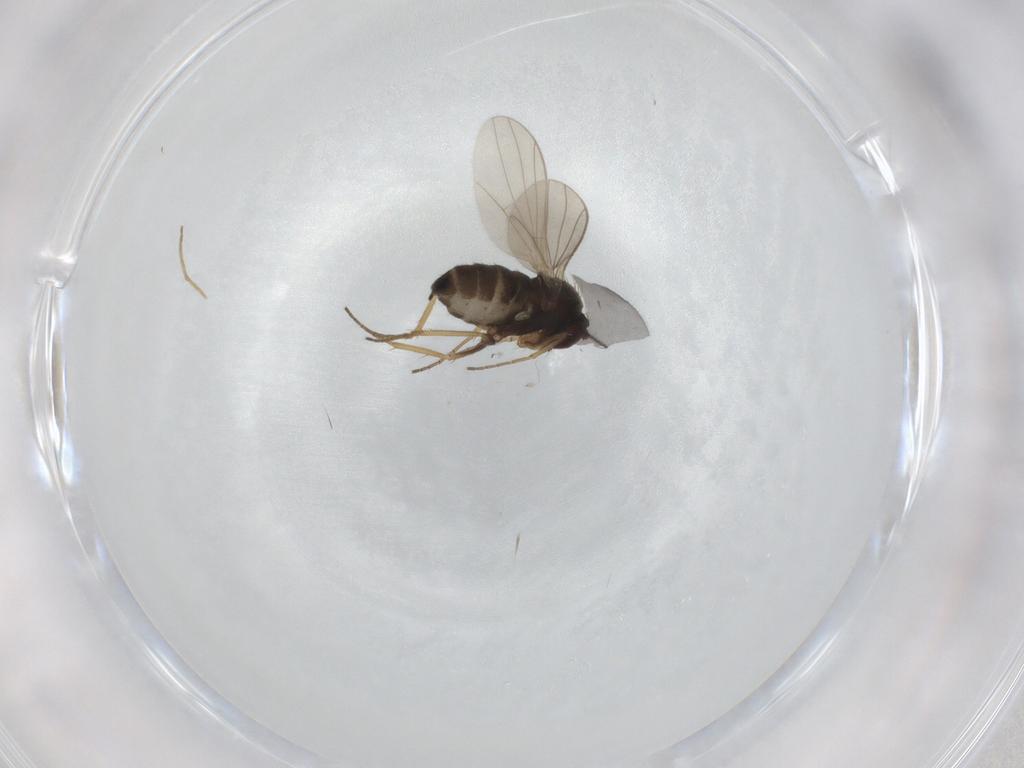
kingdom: Animalia
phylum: Arthropoda
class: Insecta
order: Diptera
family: Chironomidae
